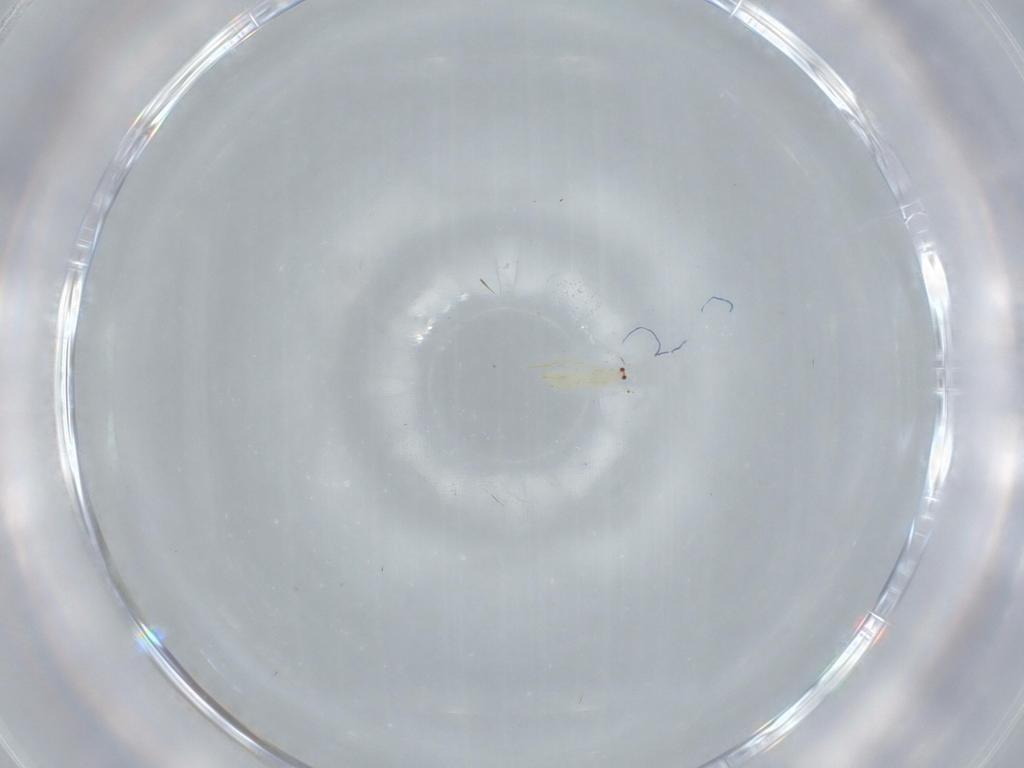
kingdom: Animalia
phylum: Arthropoda
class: Insecta
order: Thysanoptera
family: Thripidae
